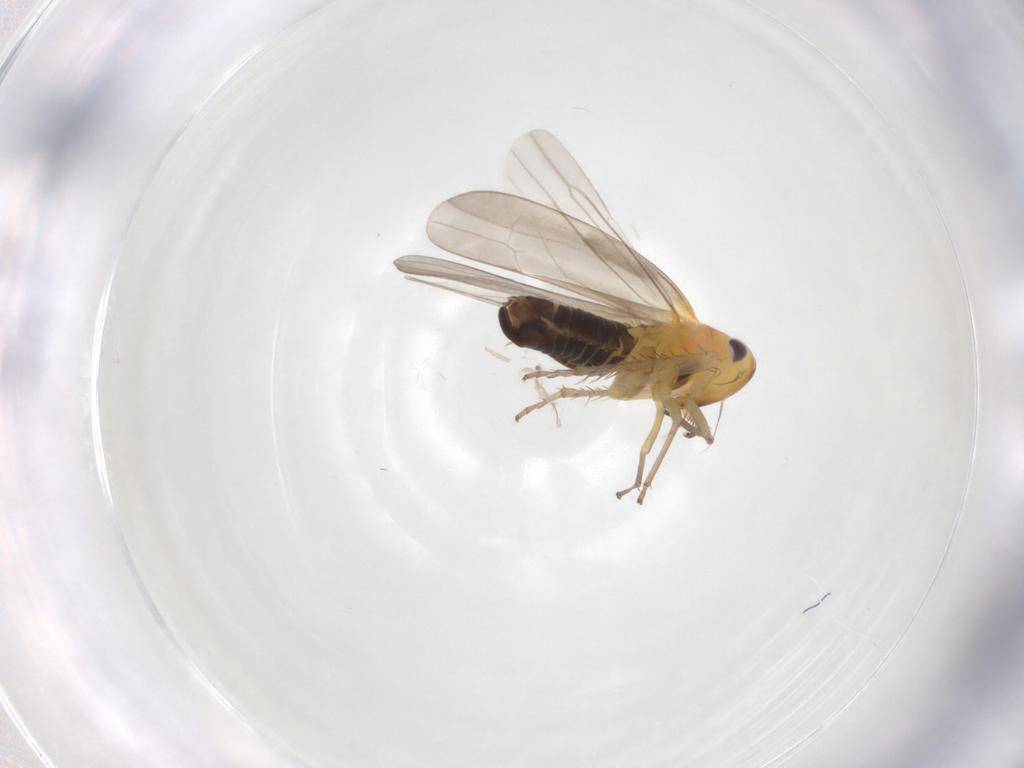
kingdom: Animalia
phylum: Arthropoda
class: Insecta
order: Hemiptera
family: Cicadellidae
